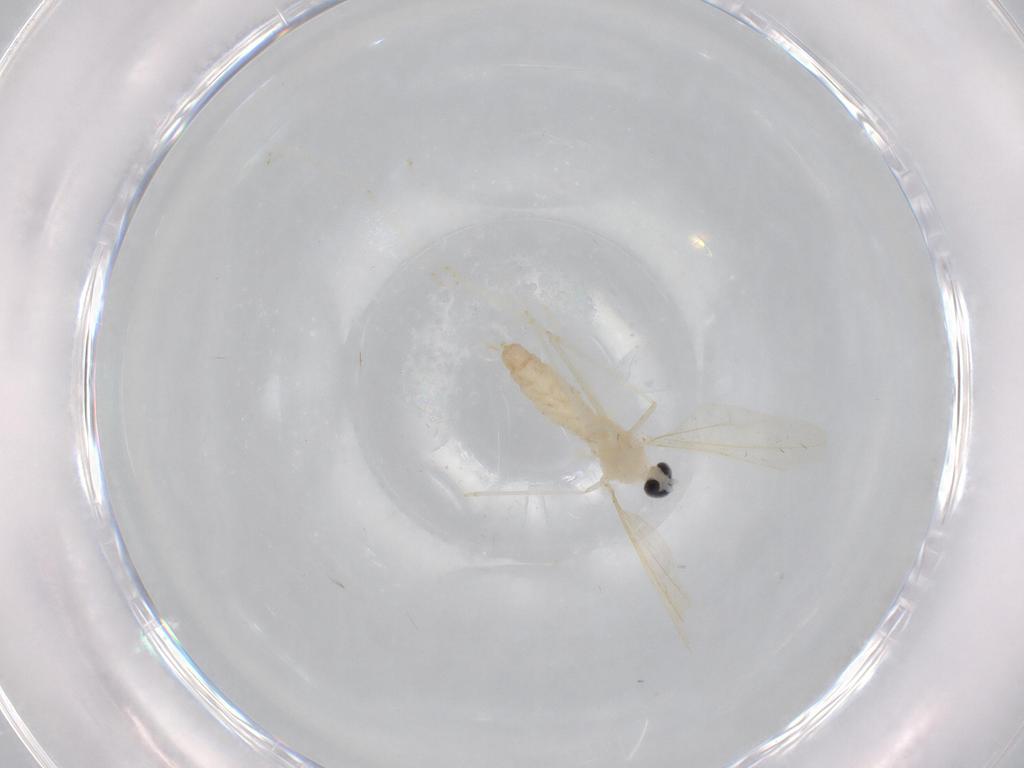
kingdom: Animalia
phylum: Arthropoda
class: Insecta
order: Diptera
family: Cecidomyiidae
